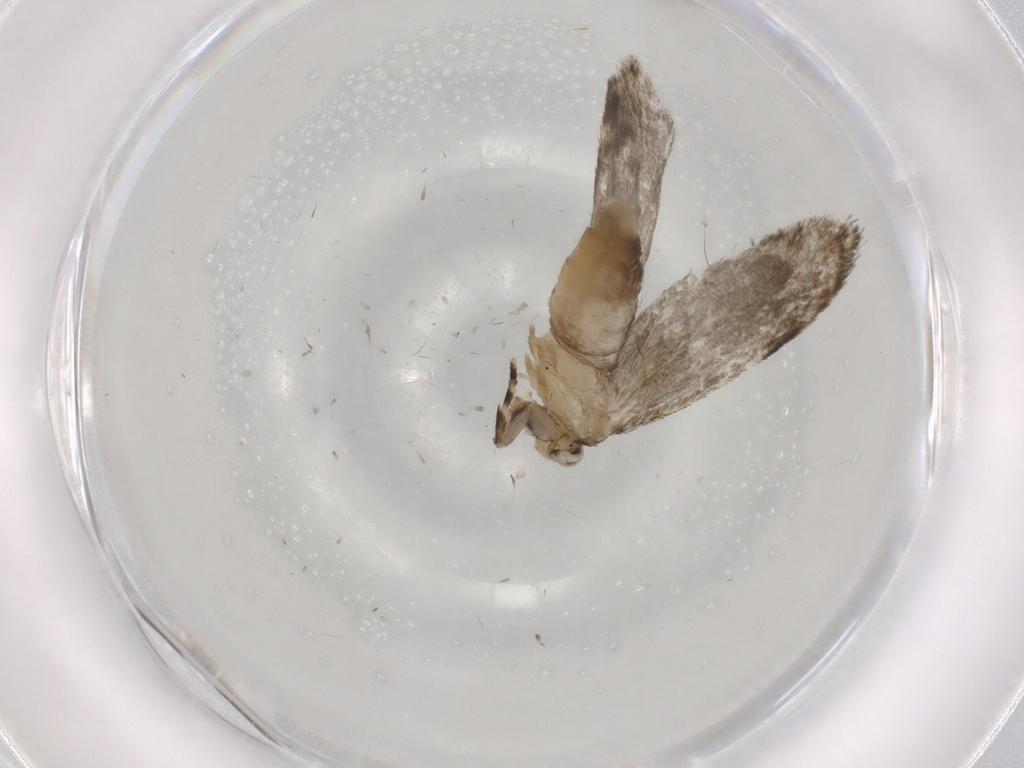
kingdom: Animalia
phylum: Arthropoda
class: Insecta
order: Lepidoptera
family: Tineidae
